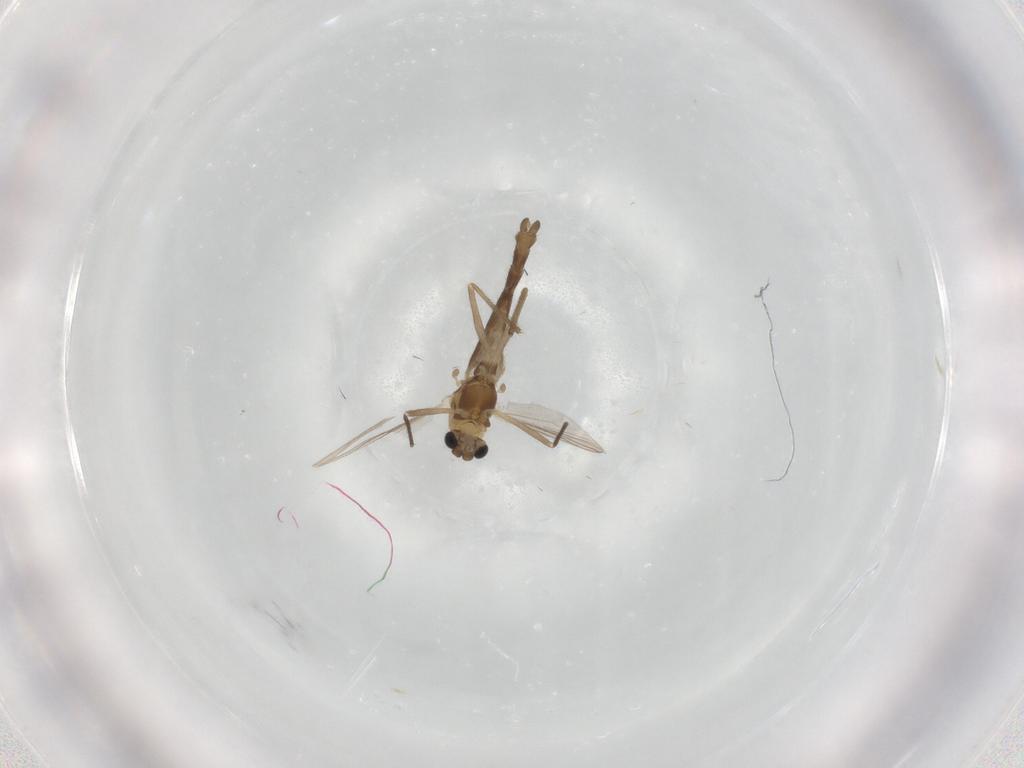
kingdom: Animalia
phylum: Arthropoda
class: Insecta
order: Diptera
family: Chironomidae
